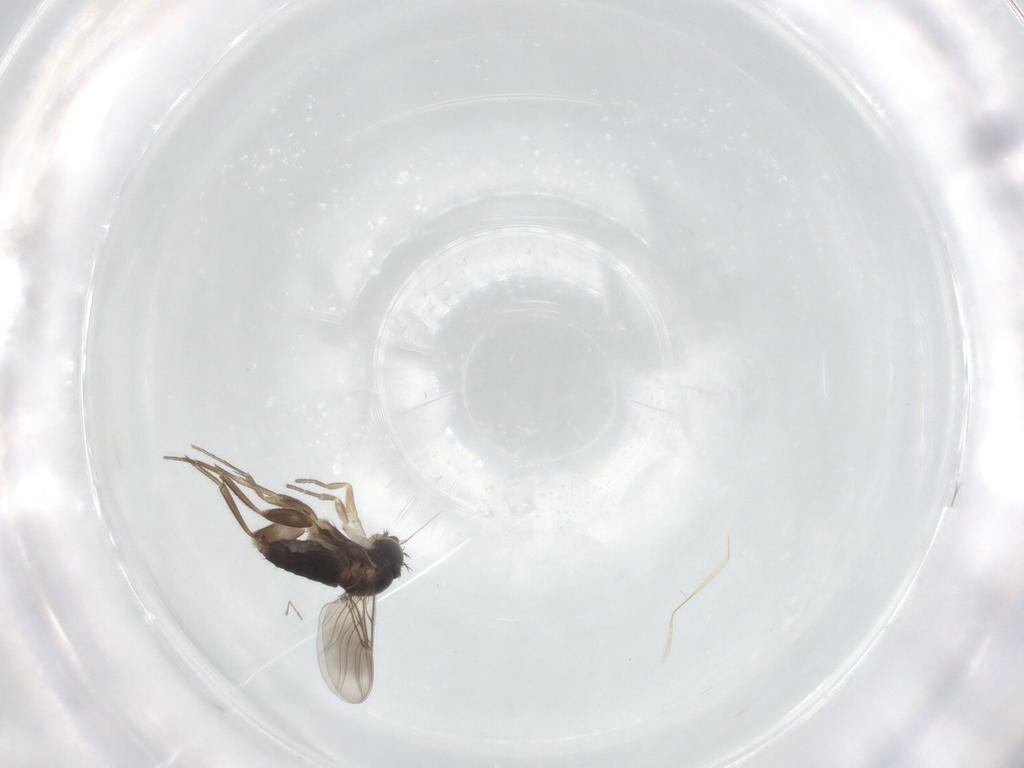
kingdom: Animalia
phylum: Arthropoda
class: Insecta
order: Diptera
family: Phoridae
